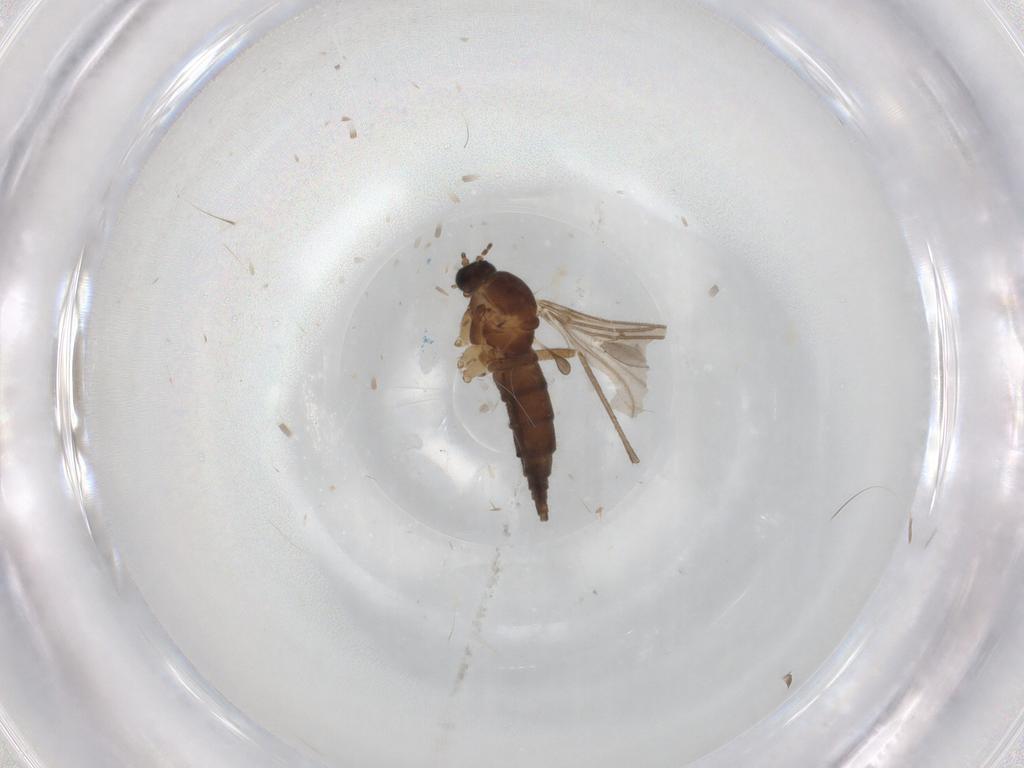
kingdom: Animalia
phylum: Arthropoda
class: Insecta
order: Diptera
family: Sciaridae
